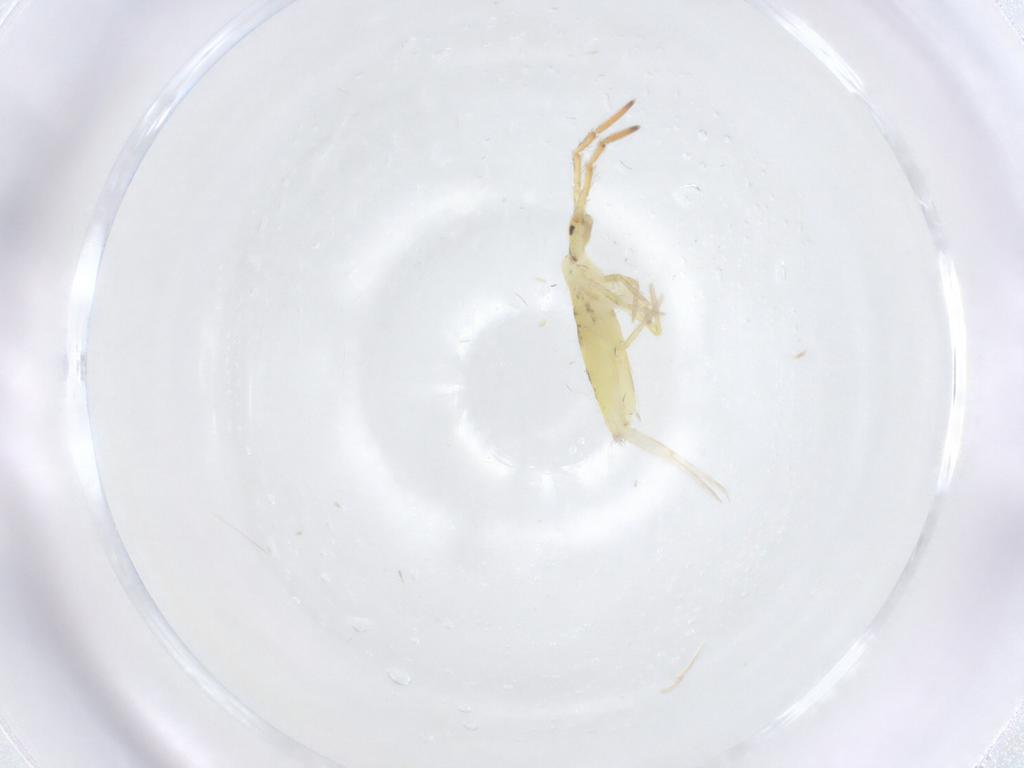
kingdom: Animalia
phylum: Arthropoda
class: Collembola
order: Entomobryomorpha
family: Entomobryidae
